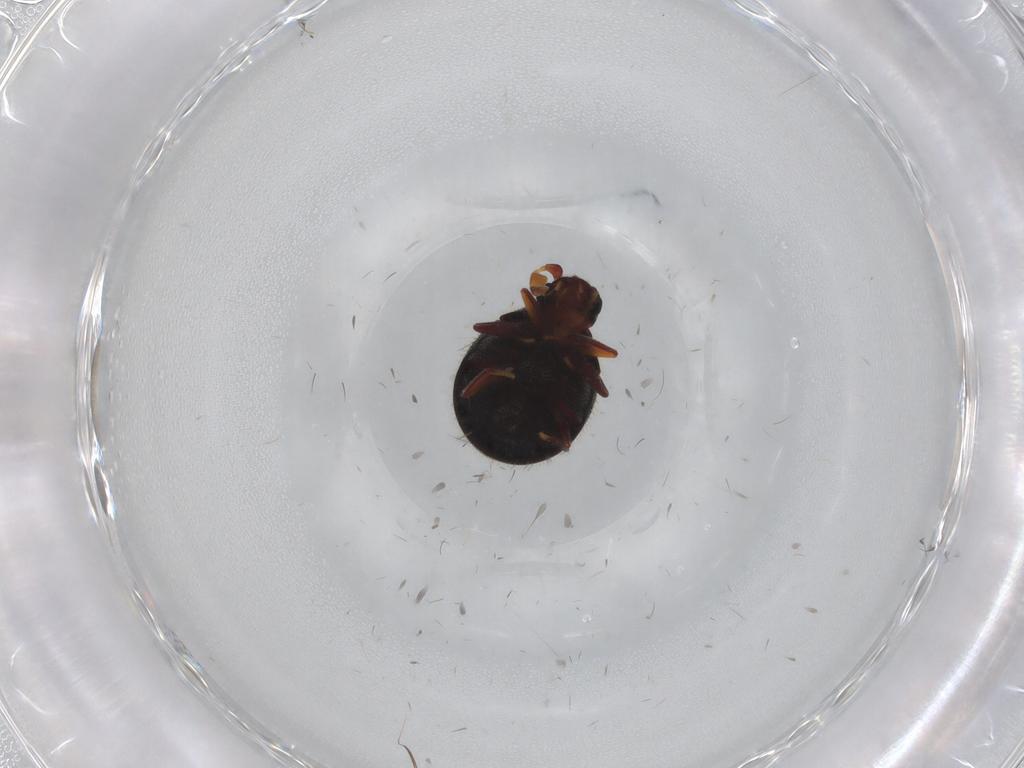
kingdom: Animalia
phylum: Arthropoda
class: Insecta
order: Coleoptera
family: Ptinidae
